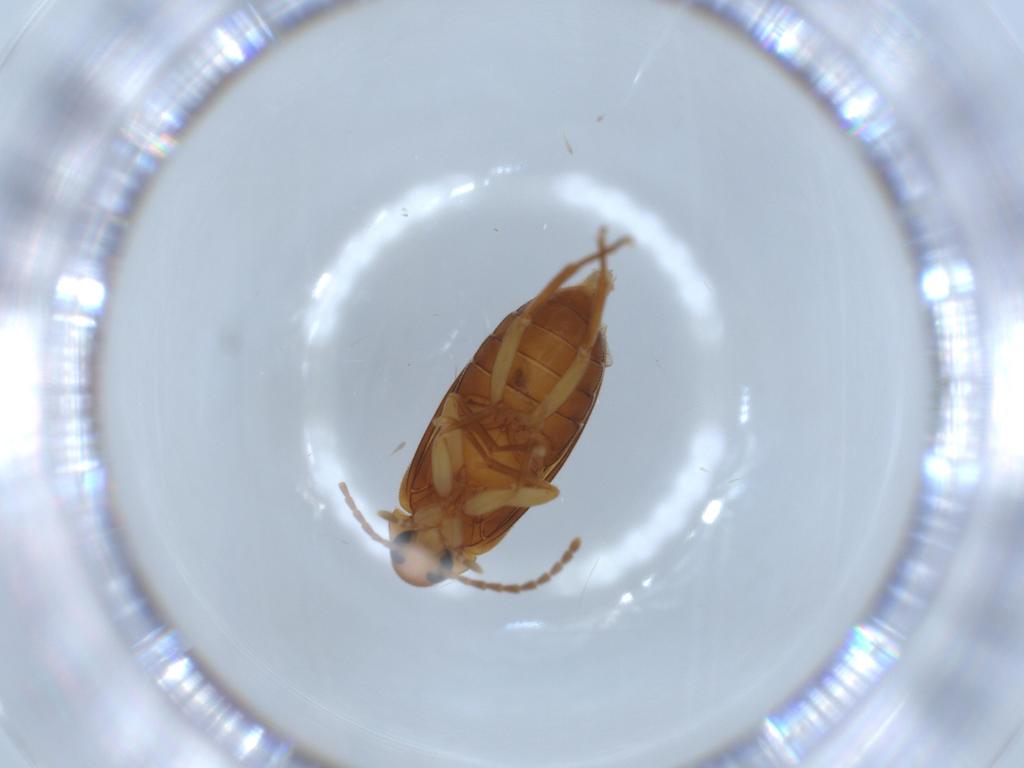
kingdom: Animalia
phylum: Arthropoda
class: Insecta
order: Coleoptera
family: Scraptiidae
